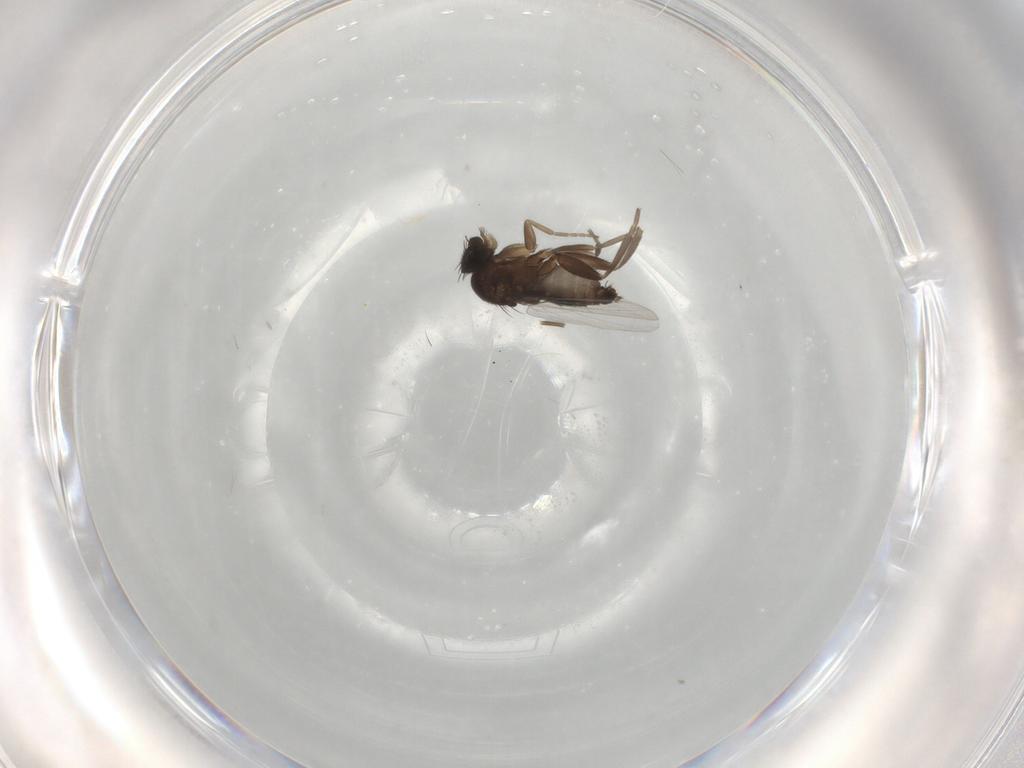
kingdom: Animalia
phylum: Arthropoda
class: Insecta
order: Diptera
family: Phoridae
